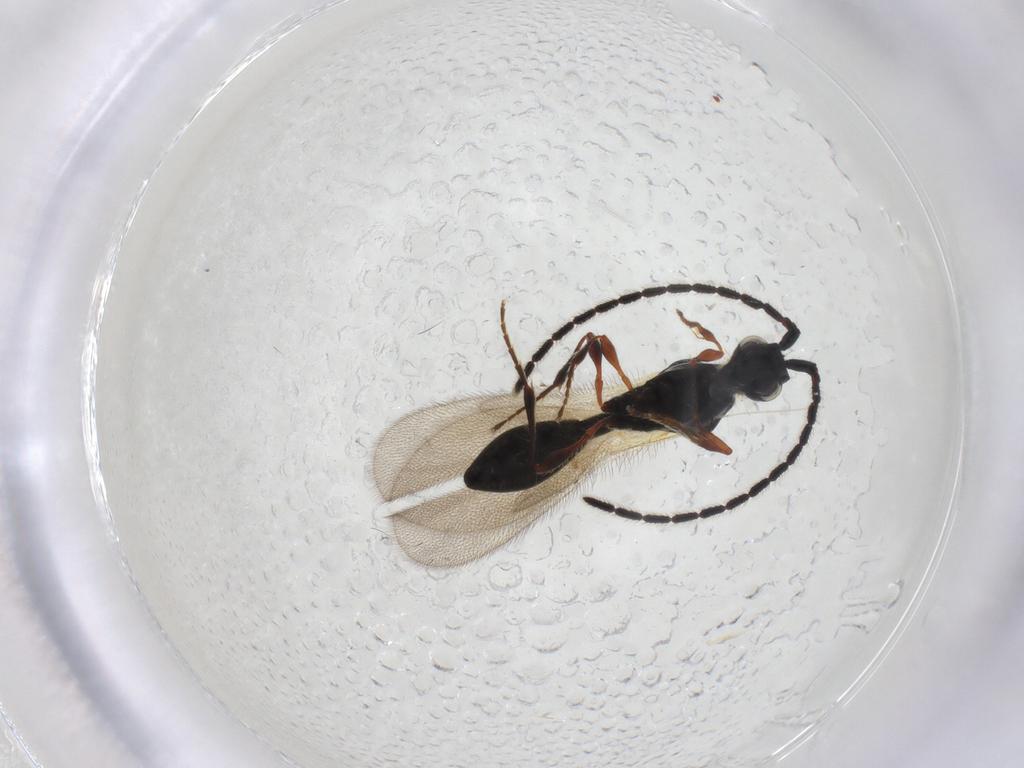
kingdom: Animalia
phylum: Arthropoda
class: Insecta
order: Hymenoptera
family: Diapriidae
